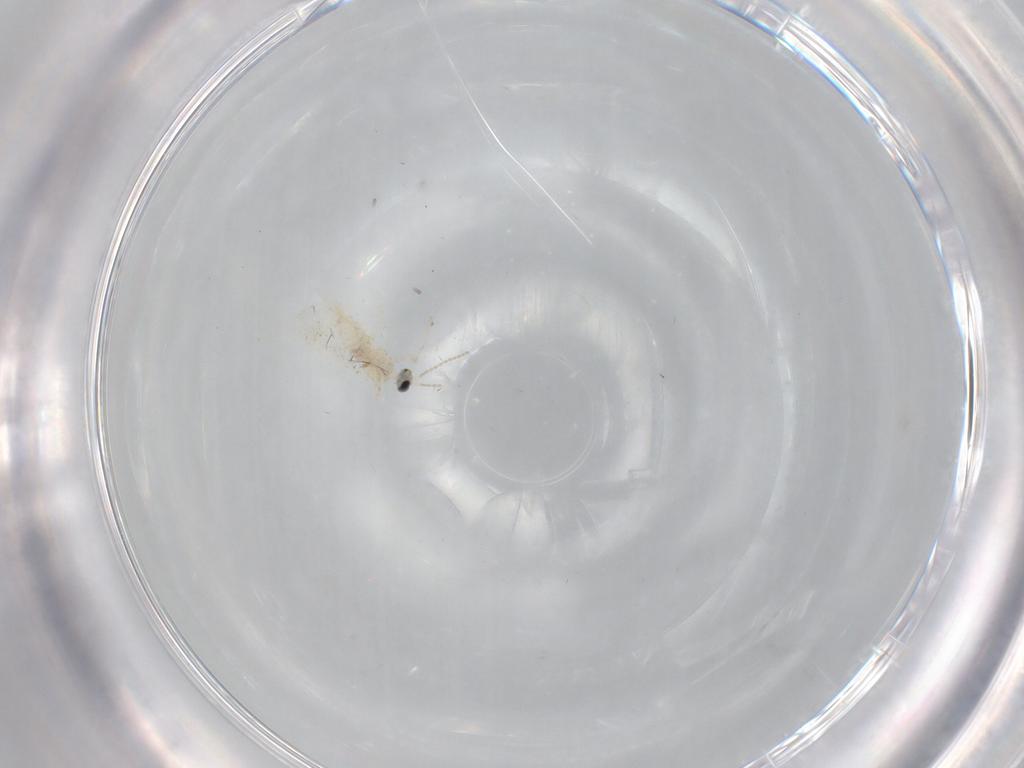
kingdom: Animalia
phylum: Arthropoda
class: Insecta
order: Diptera
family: Cecidomyiidae
